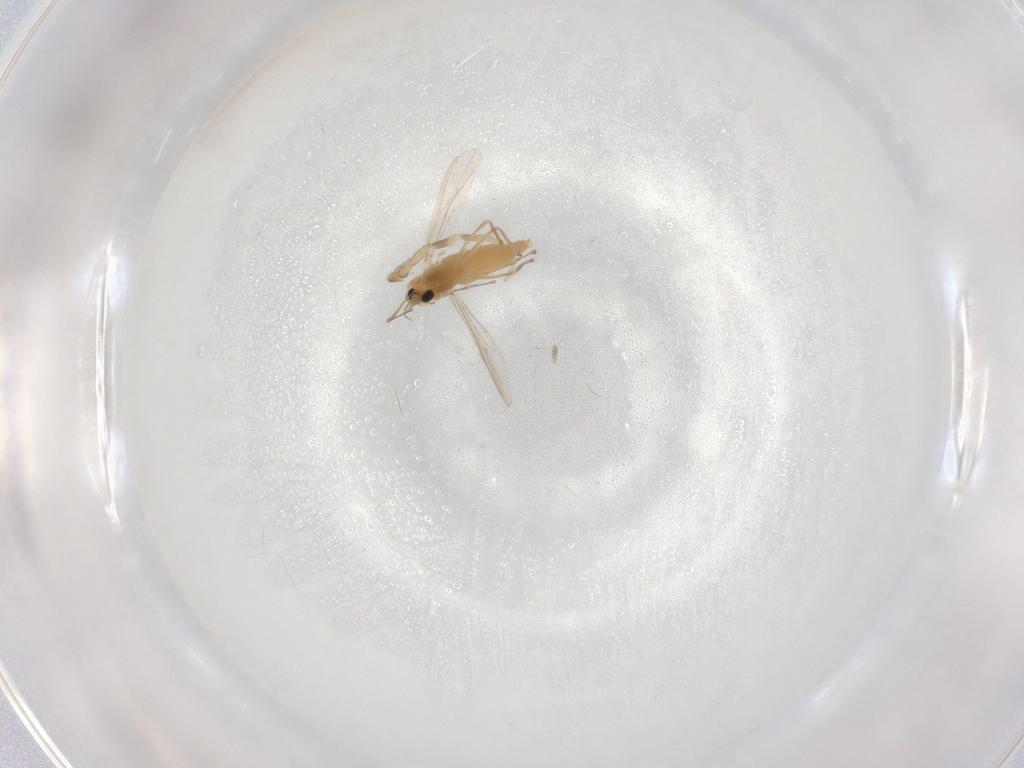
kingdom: Animalia
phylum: Arthropoda
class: Insecta
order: Diptera
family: Chironomidae
